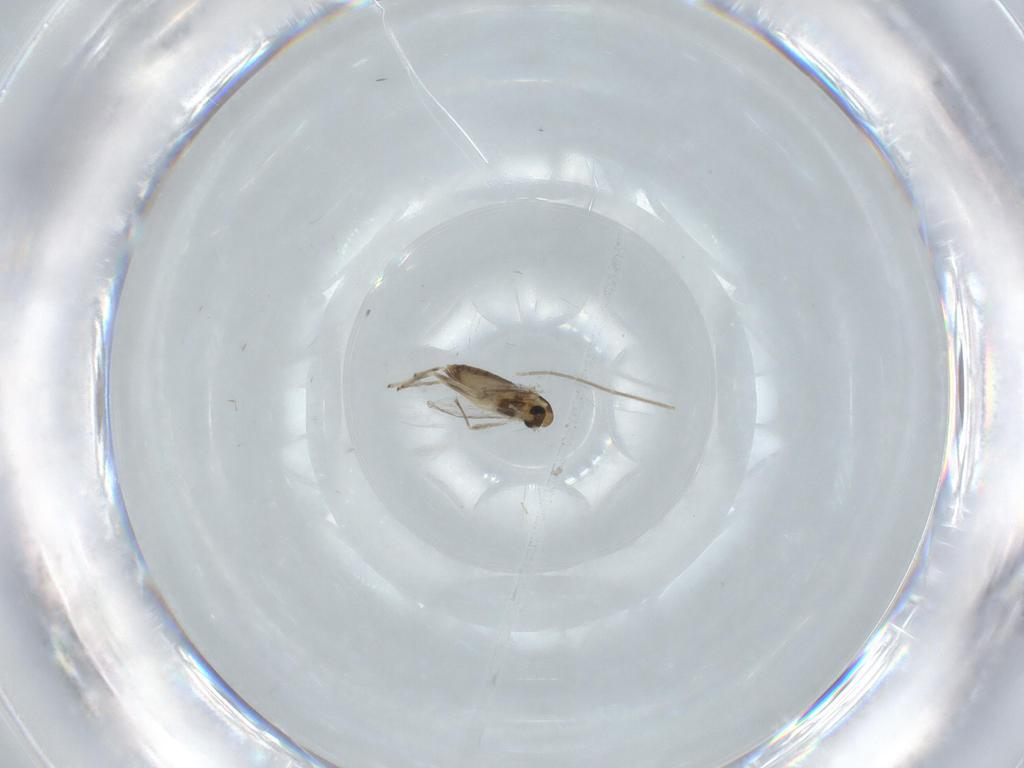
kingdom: Animalia
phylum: Arthropoda
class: Insecta
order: Diptera
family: Chironomidae
